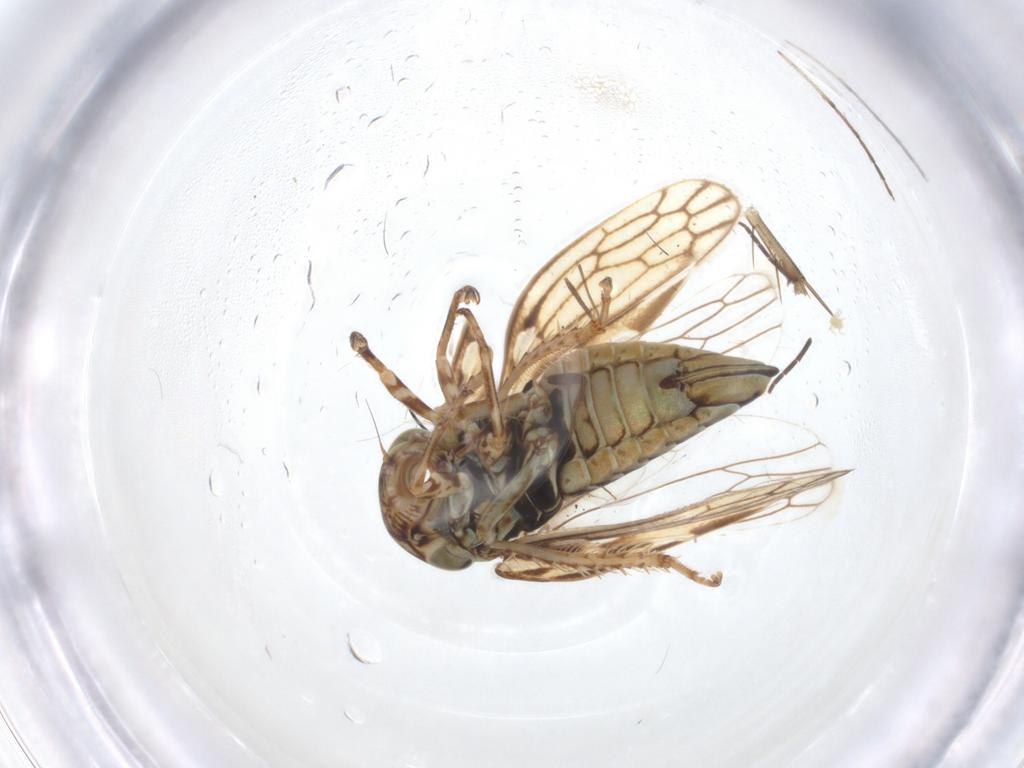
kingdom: Animalia
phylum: Arthropoda
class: Insecta
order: Hemiptera
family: Cicadellidae
